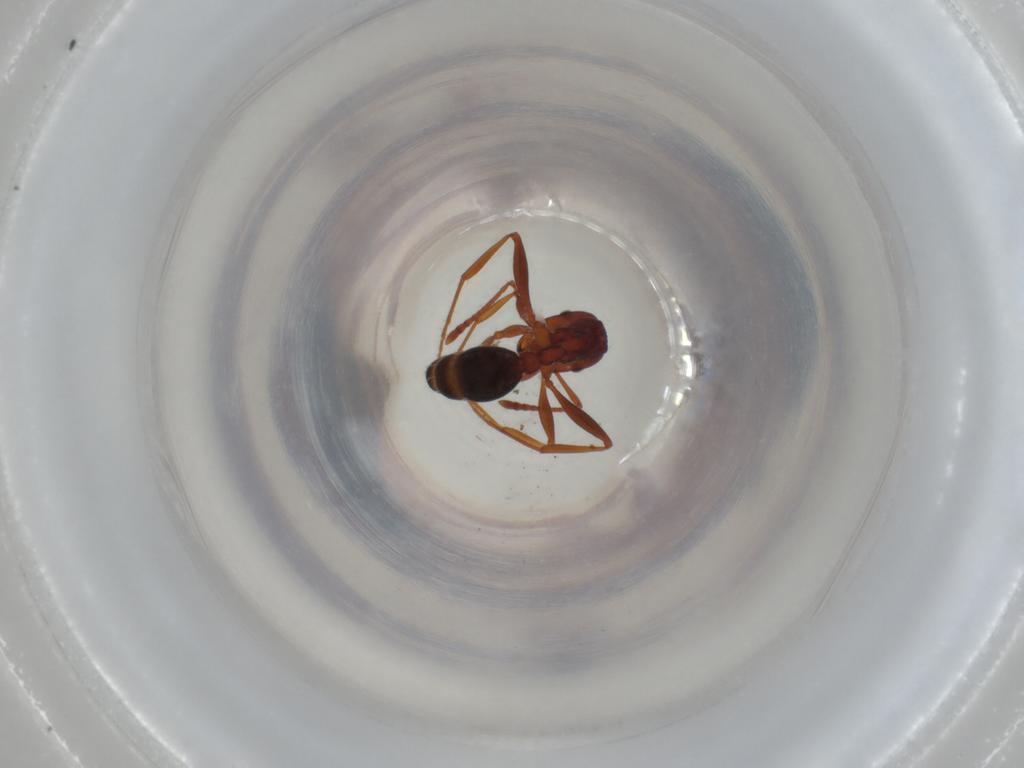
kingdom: Animalia
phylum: Arthropoda
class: Insecta
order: Hymenoptera
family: Formicidae
